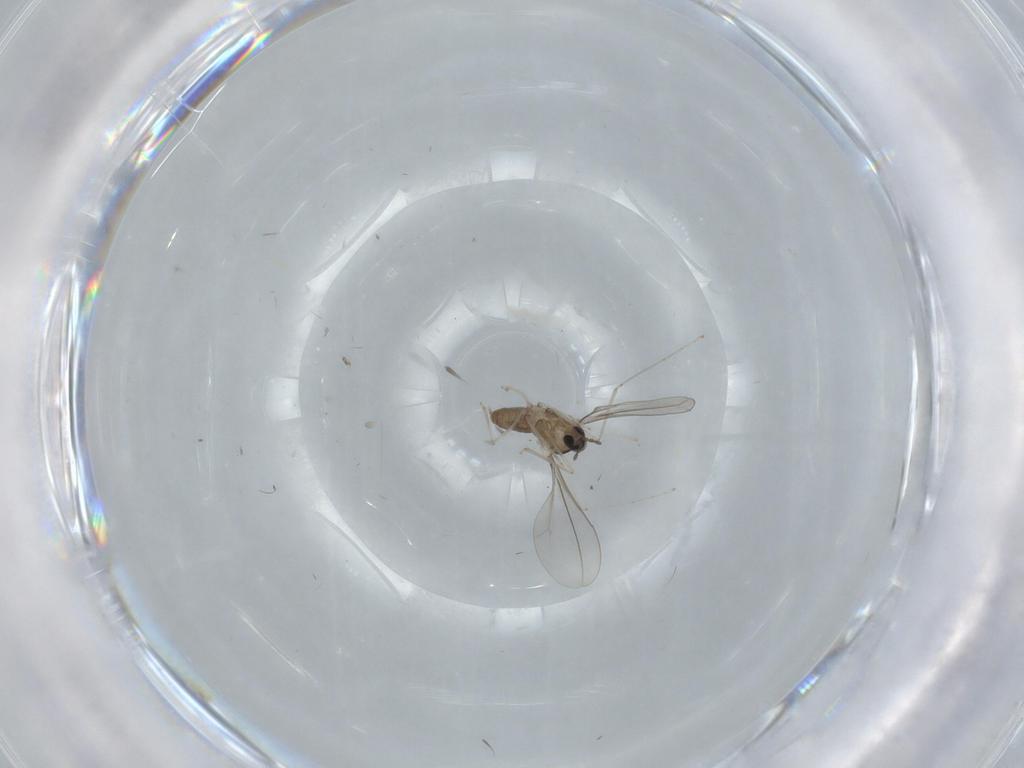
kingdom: Animalia
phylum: Arthropoda
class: Insecta
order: Diptera
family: Cecidomyiidae
